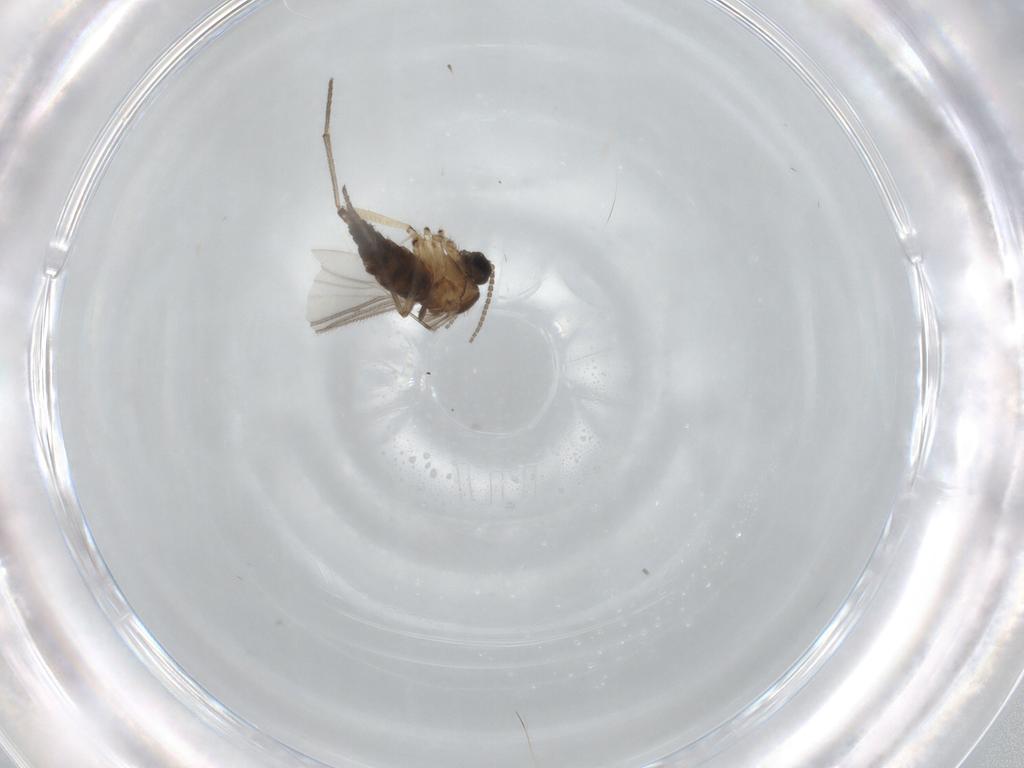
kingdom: Animalia
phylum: Arthropoda
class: Insecta
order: Diptera
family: Sciaridae
